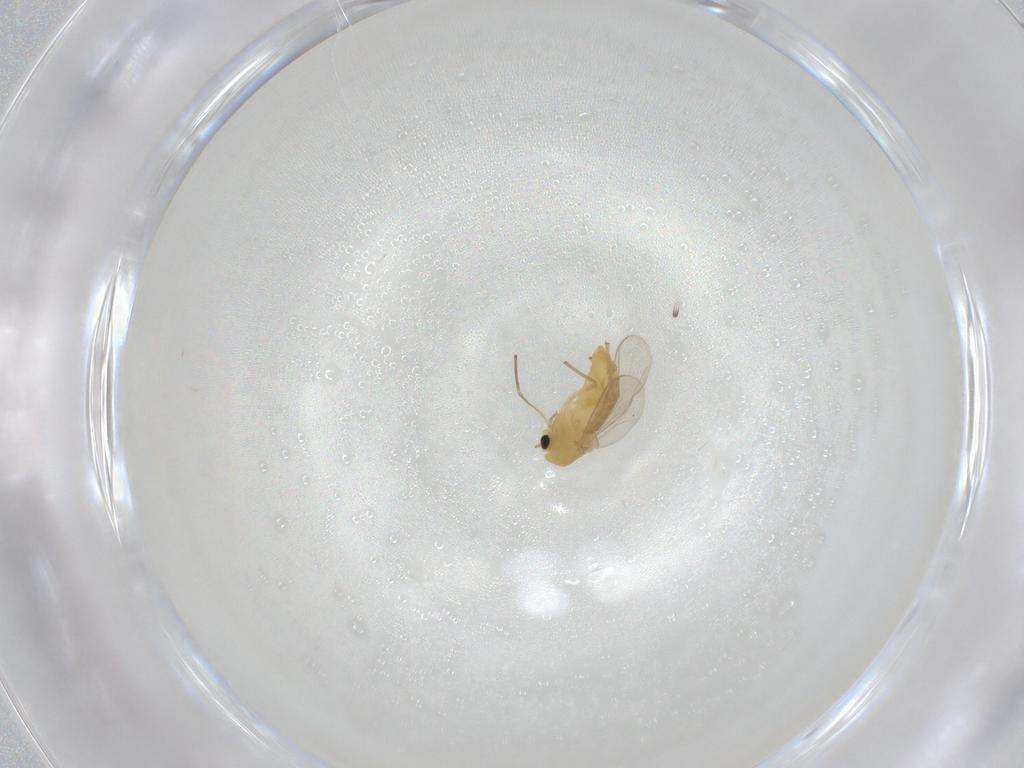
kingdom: Animalia
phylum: Arthropoda
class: Insecta
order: Diptera
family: Chironomidae
